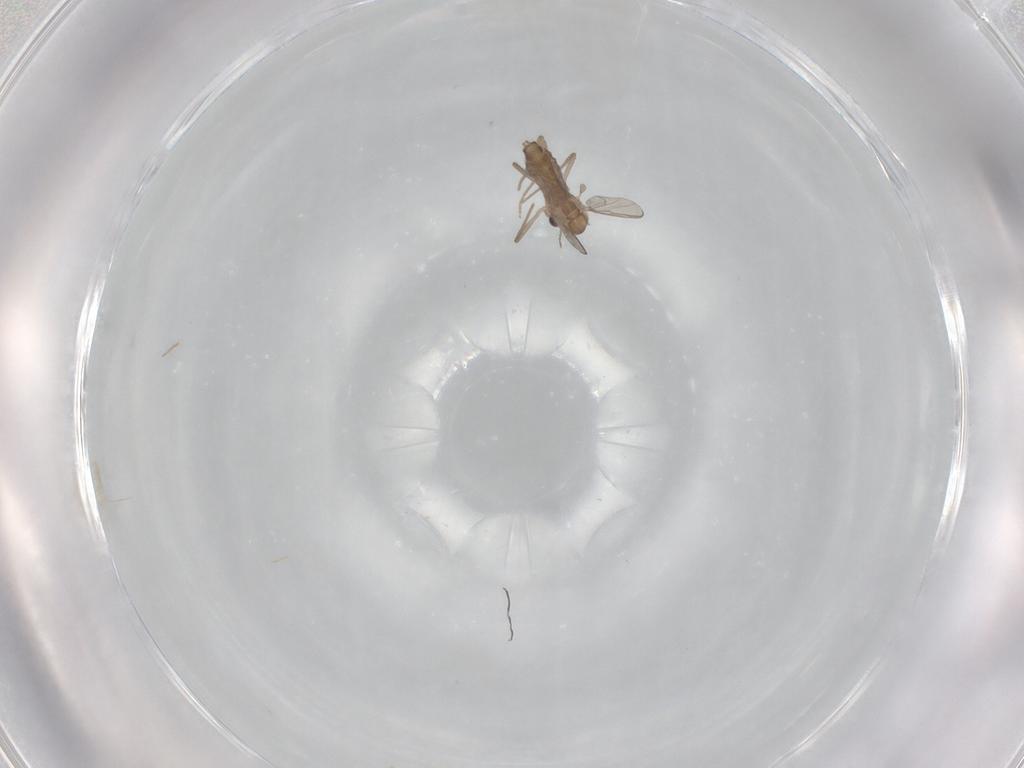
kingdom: Animalia
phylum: Arthropoda
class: Insecta
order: Diptera
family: Chironomidae
